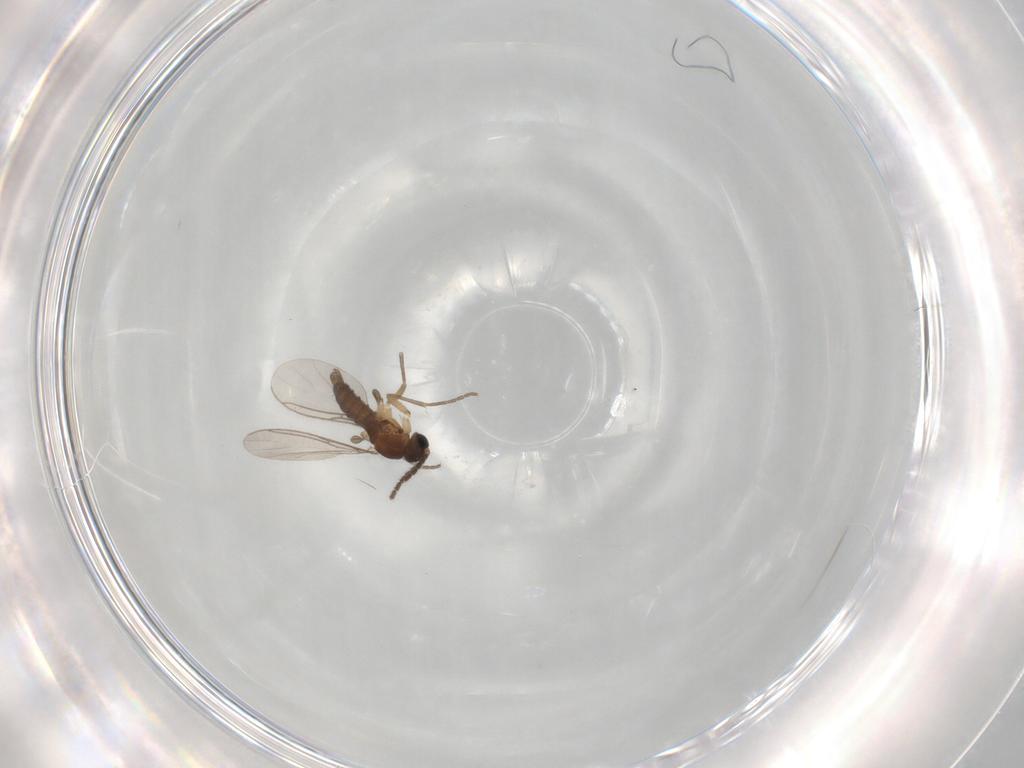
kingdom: Animalia
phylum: Arthropoda
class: Insecta
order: Diptera
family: Sciaridae
